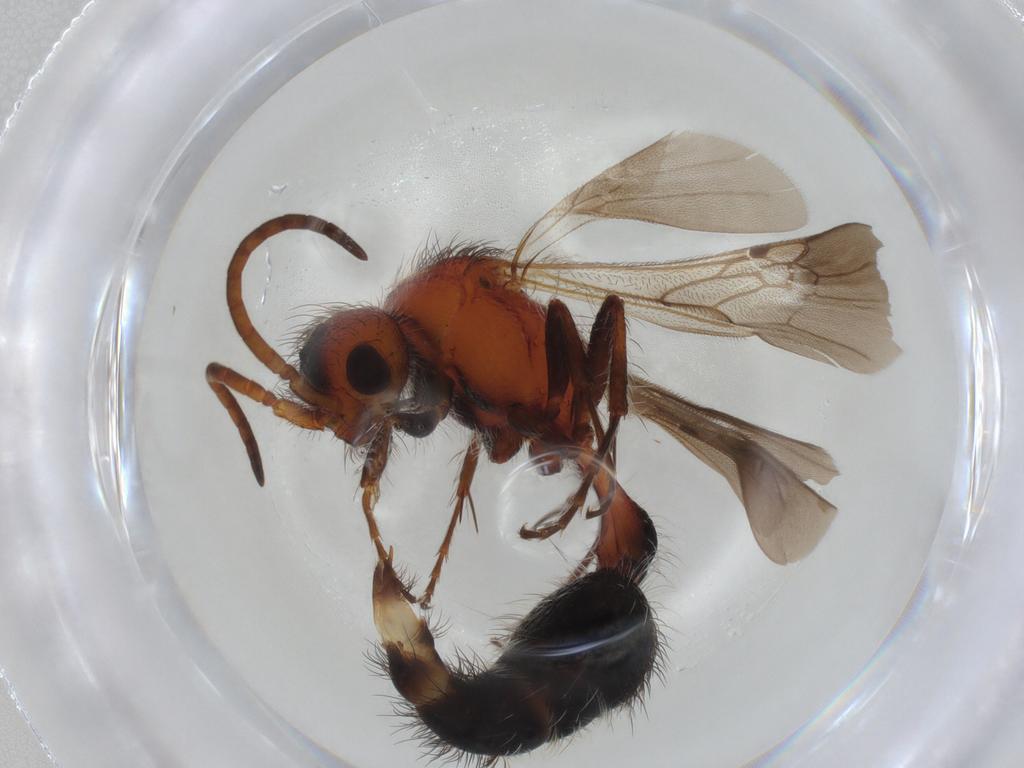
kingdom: Animalia
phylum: Arthropoda
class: Insecta
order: Hymenoptera
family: Mutillidae
